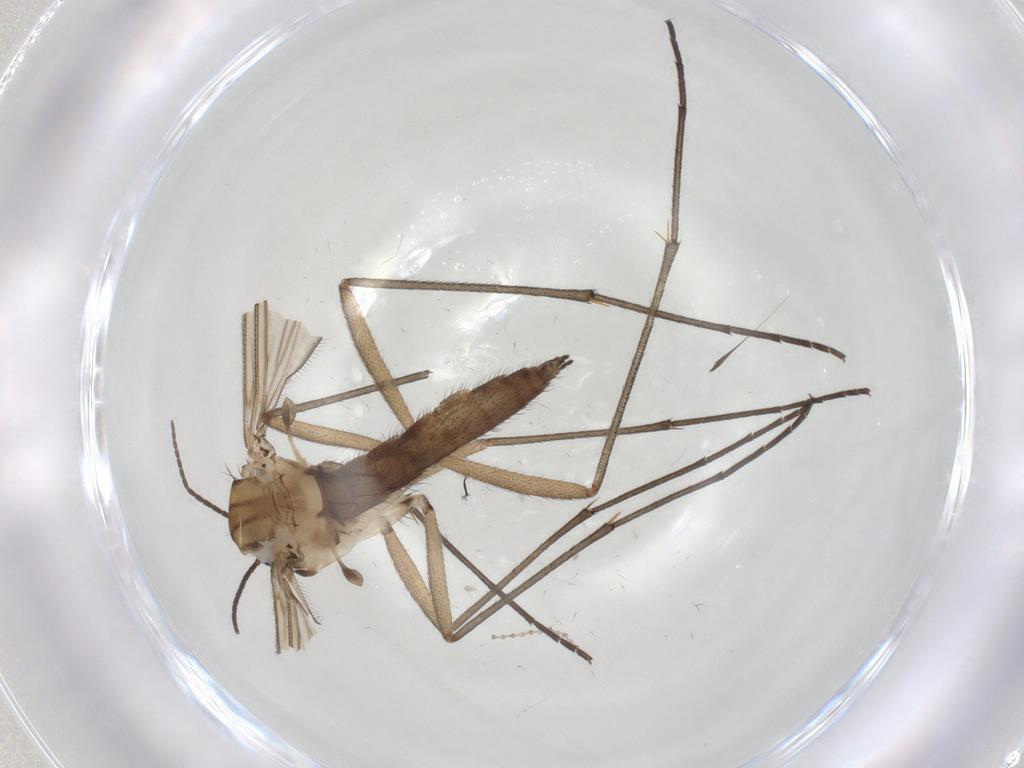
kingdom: Animalia
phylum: Arthropoda
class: Insecta
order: Diptera
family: Sciaridae
